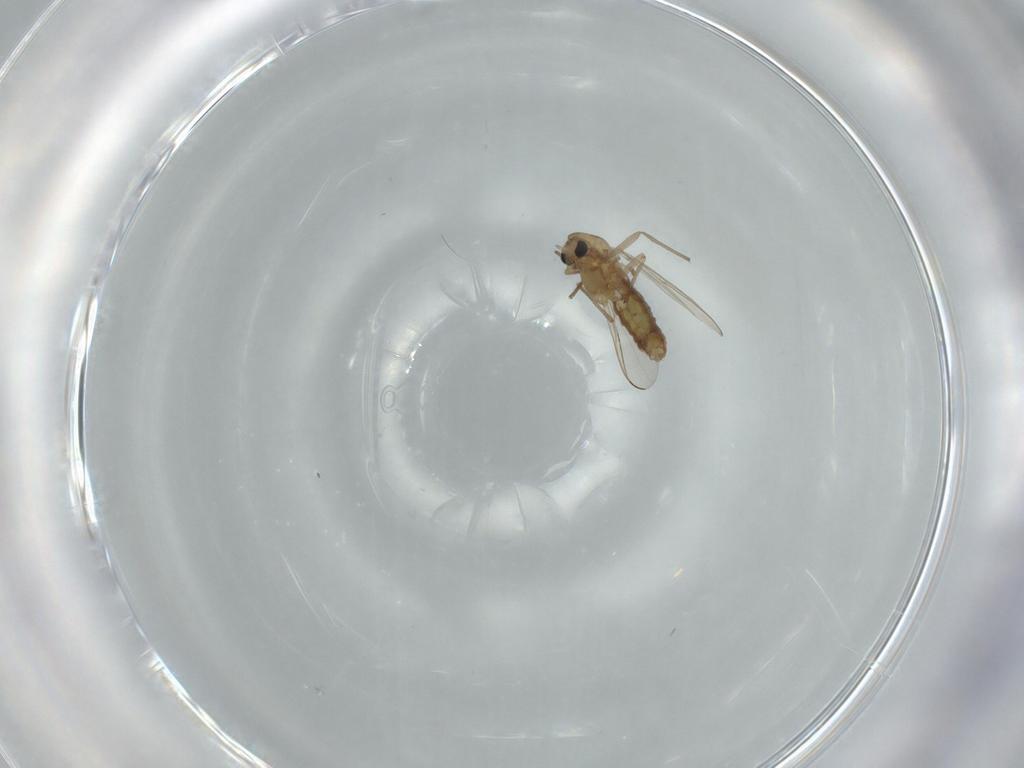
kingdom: Animalia
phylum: Arthropoda
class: Insecta
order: Diptera
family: Chironomidae
